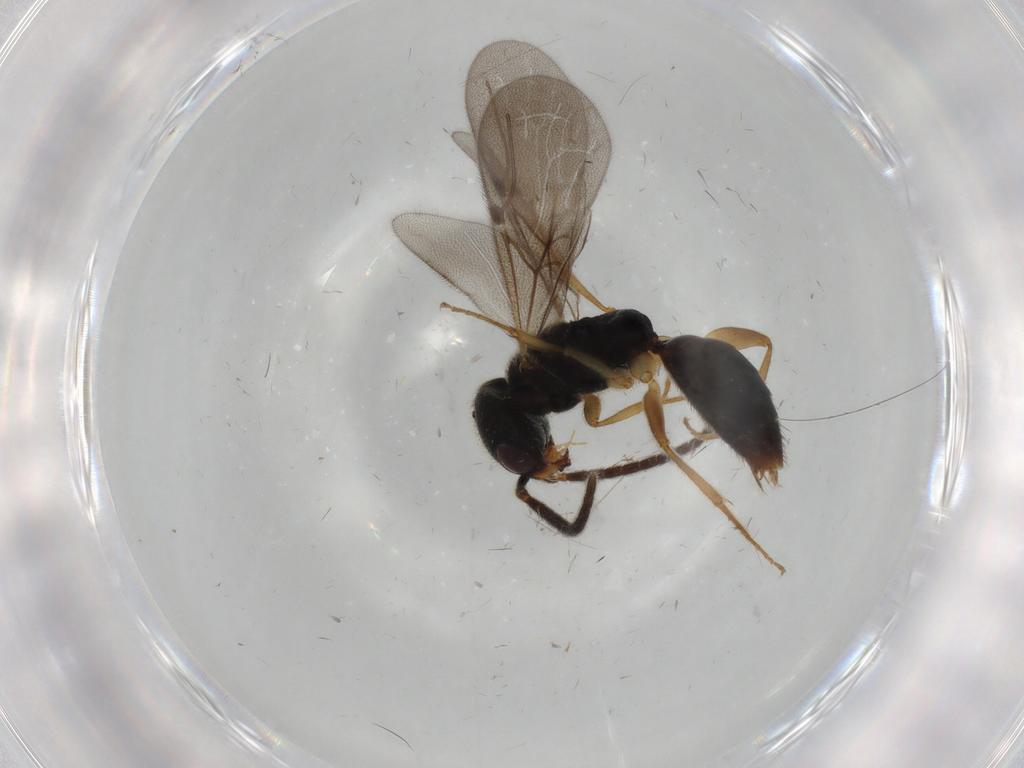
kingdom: Animalia
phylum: Arthropoda
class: Insecta
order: Hymenoptera
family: Bethylidae
